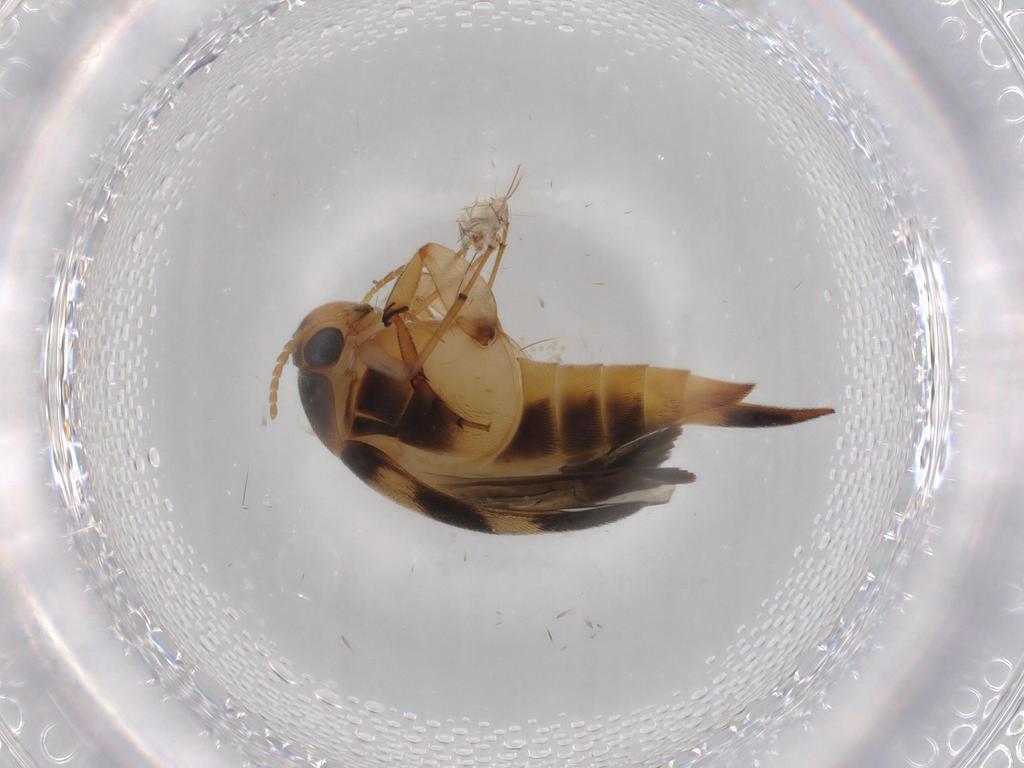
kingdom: Animalia
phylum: Arthropoda
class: Insecta
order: Coleoptera
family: Mordellidae
